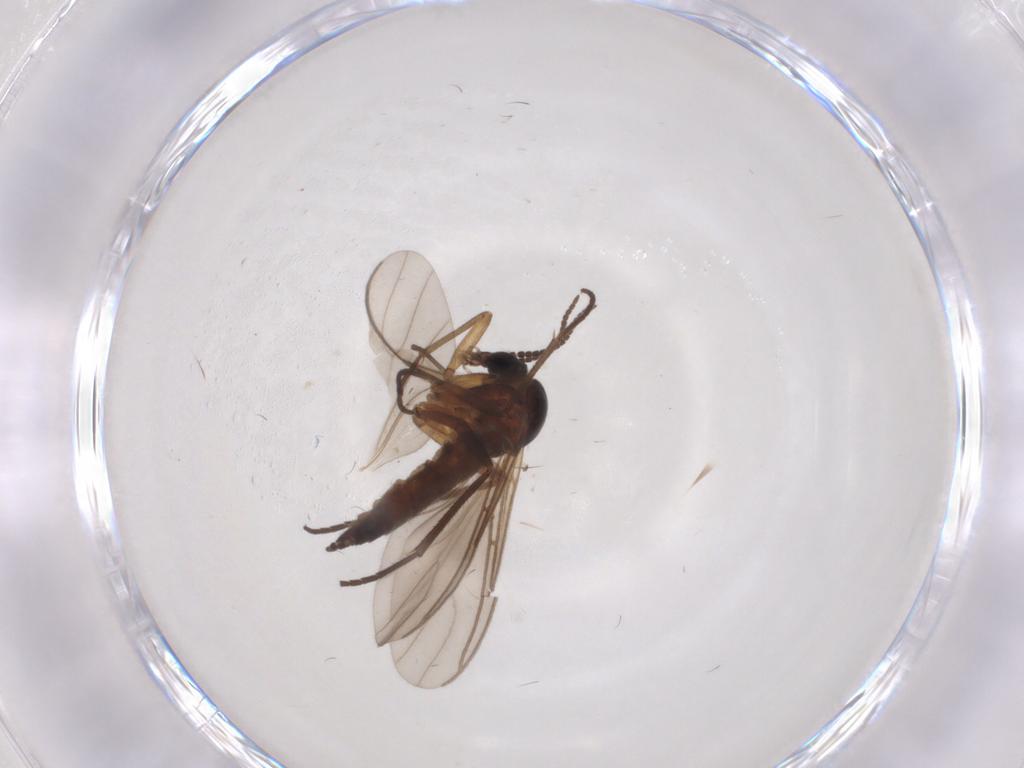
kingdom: Animalia
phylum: Arthropoda
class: Insecta
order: Diptera
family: Sciaridae
